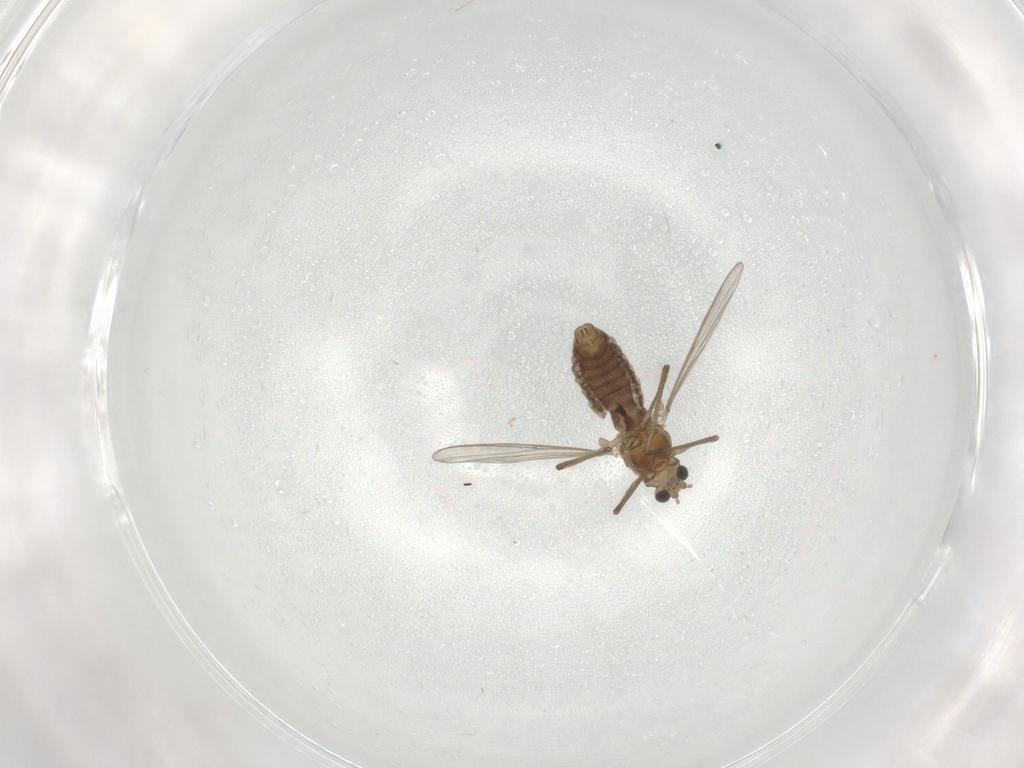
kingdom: Animalia
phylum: Arthropoda
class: Insecta
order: Diptera
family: Chironomidae
